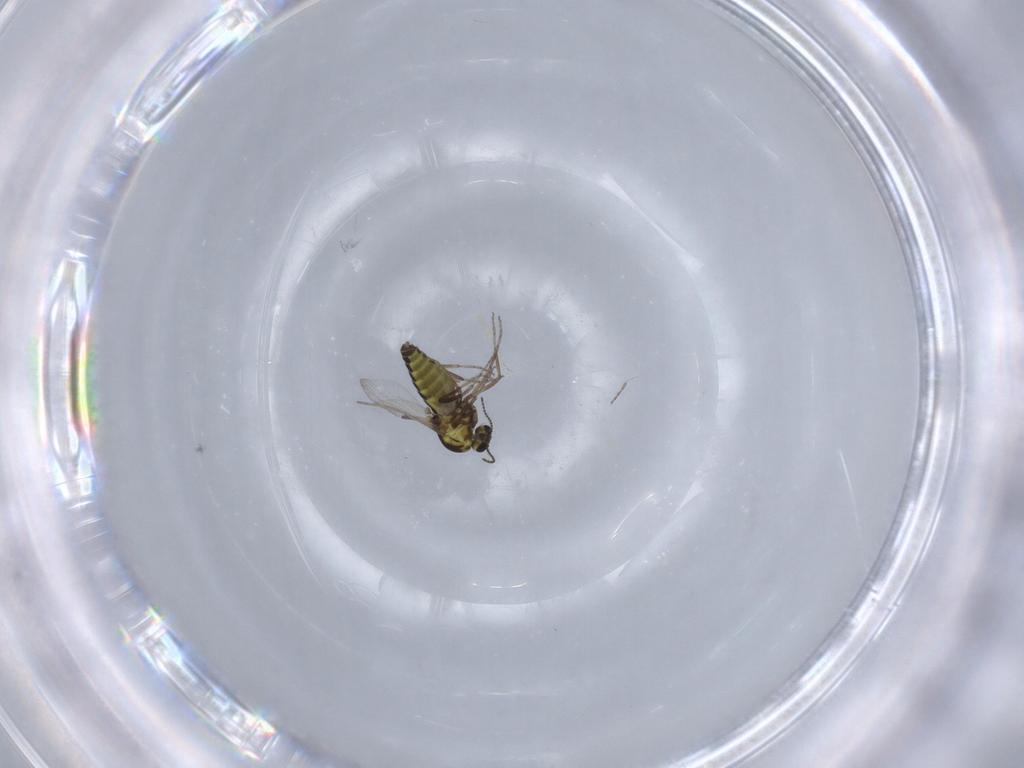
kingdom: Animalia
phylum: Arthropoda
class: Insecta
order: Diptera
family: Ceratopogonidae
